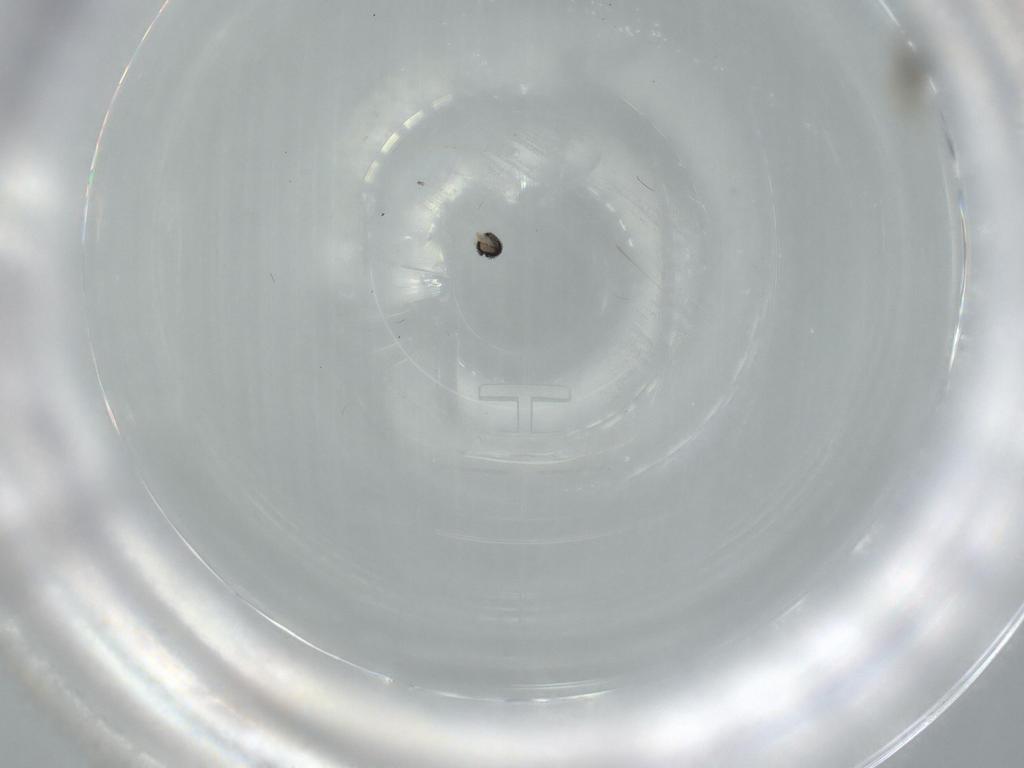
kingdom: Animalia
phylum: Arthropoda
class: Insecta
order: Diptera
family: Cecidomyiidae
